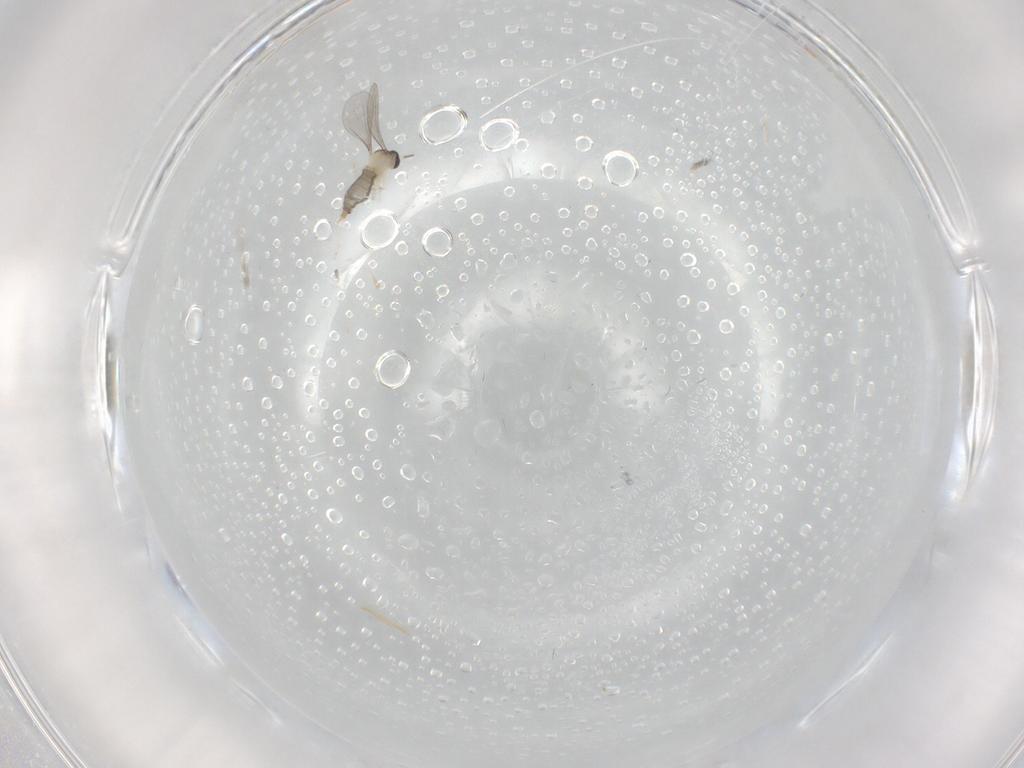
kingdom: Animalia
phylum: Arthropoda
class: Insecta
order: Diptera
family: Cecidomyiidae
